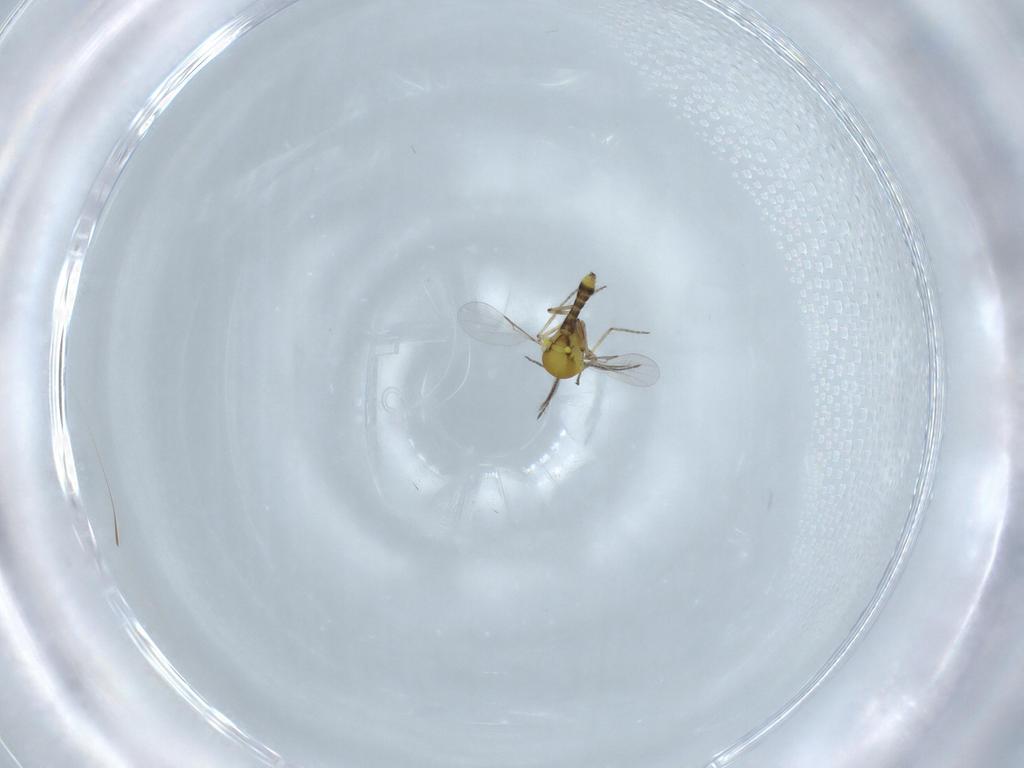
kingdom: Animalia
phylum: Arthropoda
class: Insecta
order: Diptera
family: Ceratopogonidae
